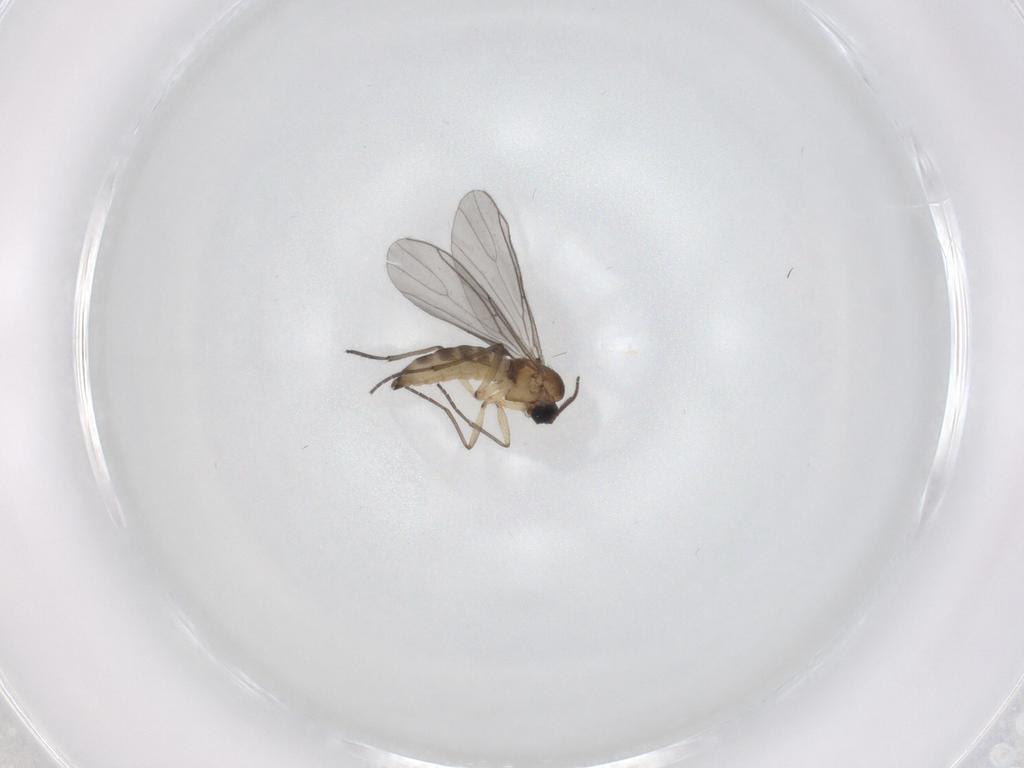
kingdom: Animalia
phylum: Arthropoda
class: Insecta
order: Diptera
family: Sciaridae
